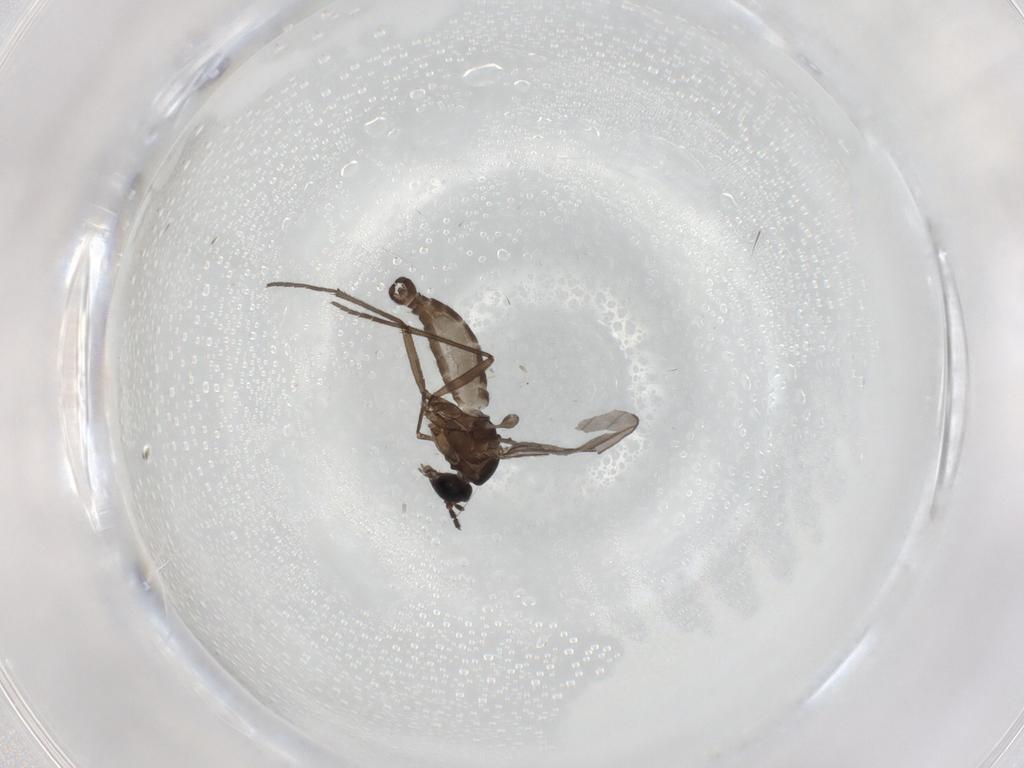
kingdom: Animalia
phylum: Arthropoda
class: Insecta
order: Diptera
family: Sciaridae
